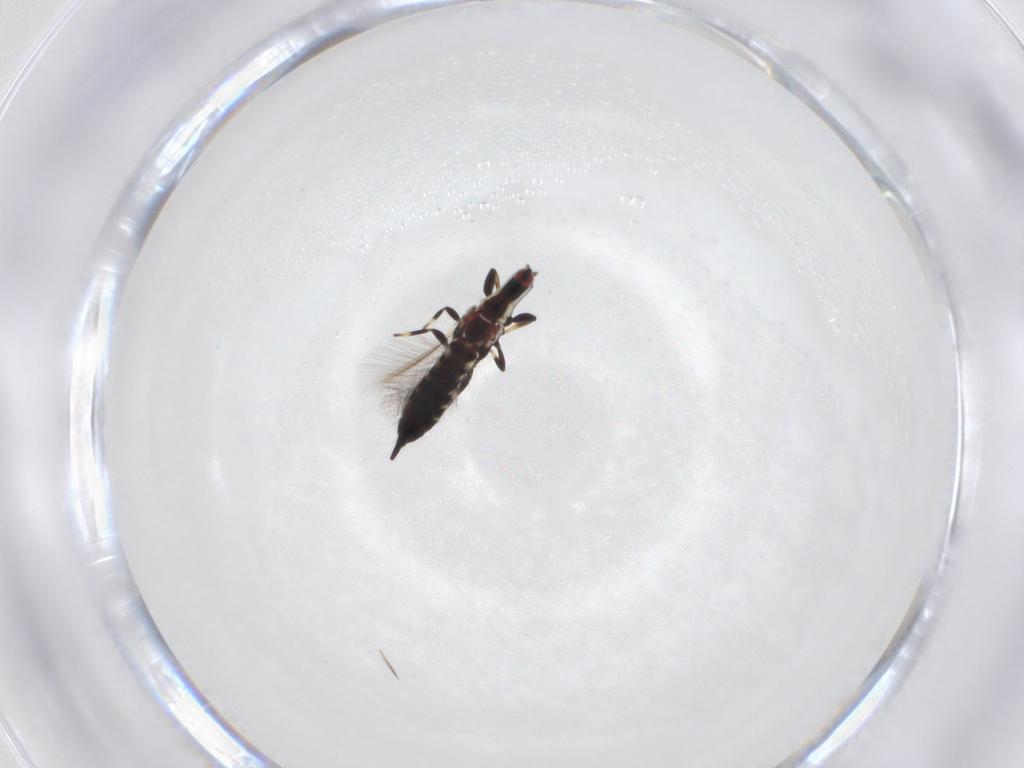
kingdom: Animalia
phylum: Arthropoda
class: Insecta
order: Thysanoptera
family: Phlaeothripidae
